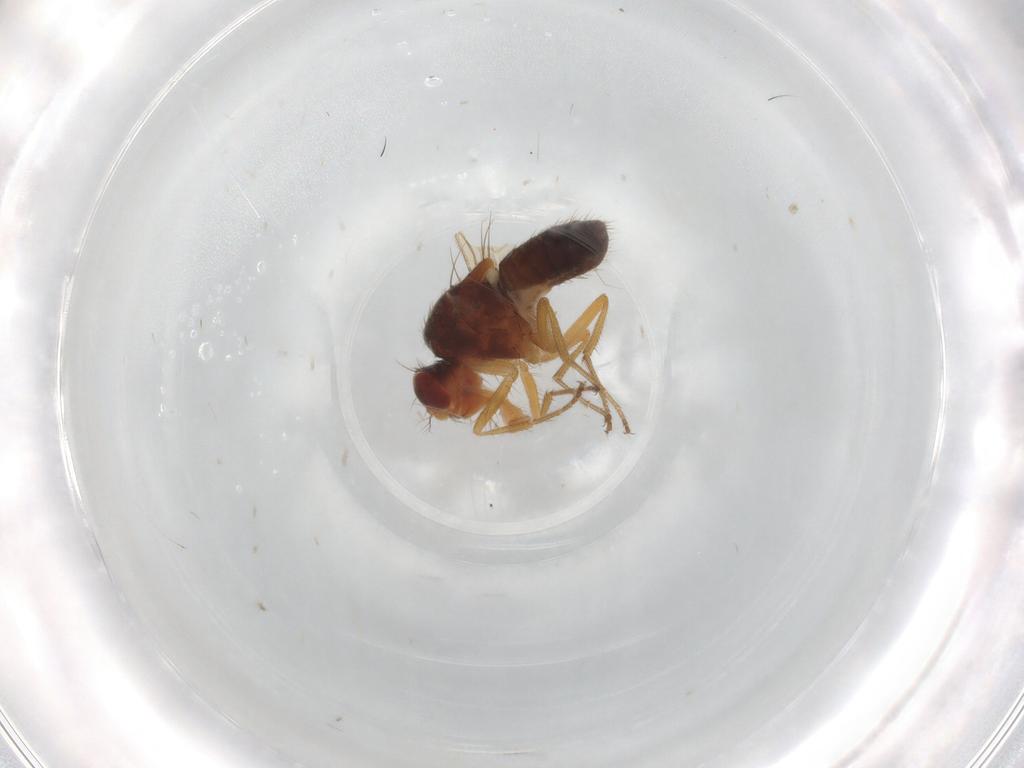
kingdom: Animalia
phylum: Arthropoda
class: Insecta
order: Diptera
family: Drosophilidae
